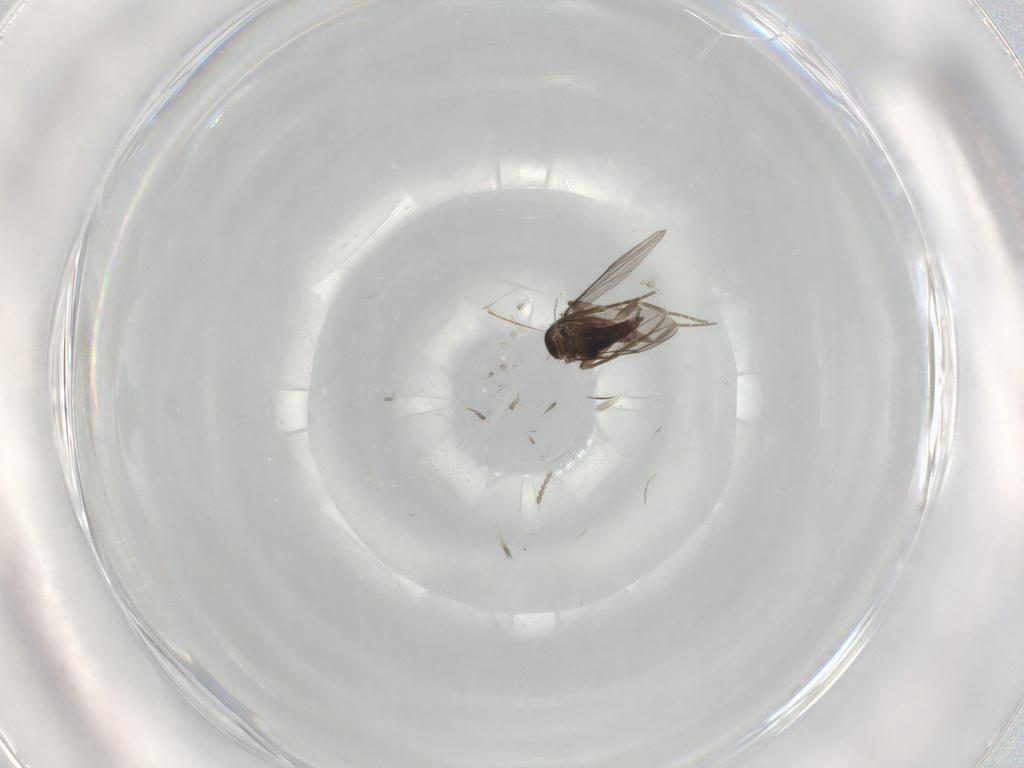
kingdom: Animalia
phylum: Arthropoda
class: Insecta
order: Diptera
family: Cecidomyiidae
